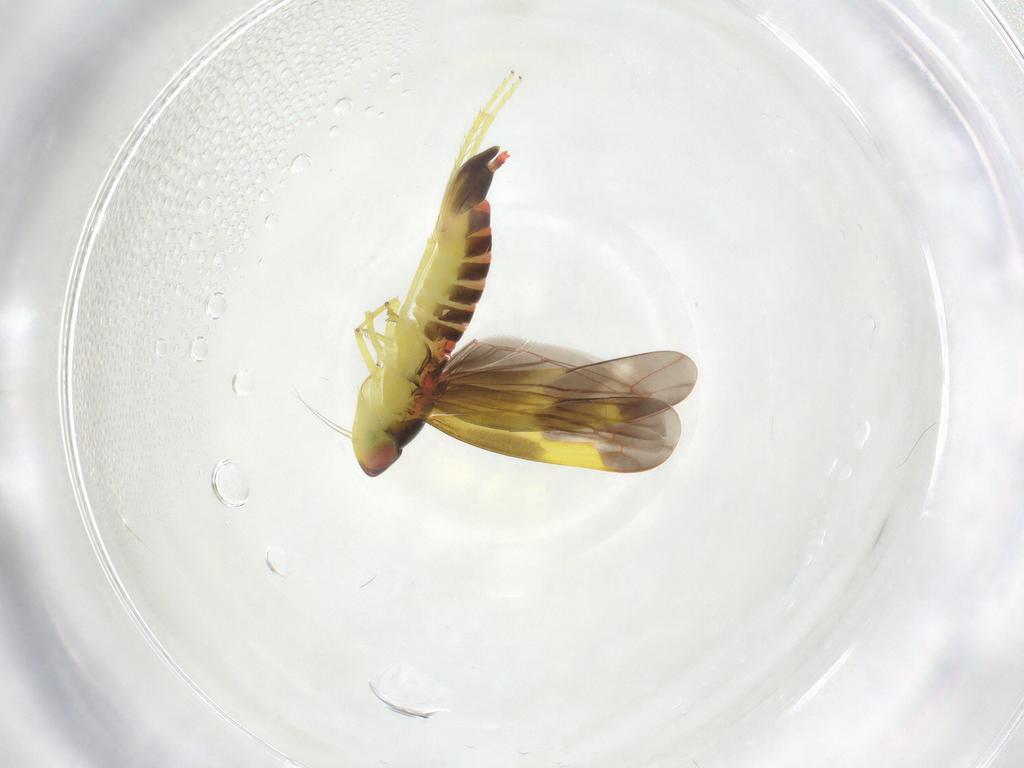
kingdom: Animalia
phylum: Arthropoda
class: Insecta
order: Hemiptera
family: Cicadellidae
